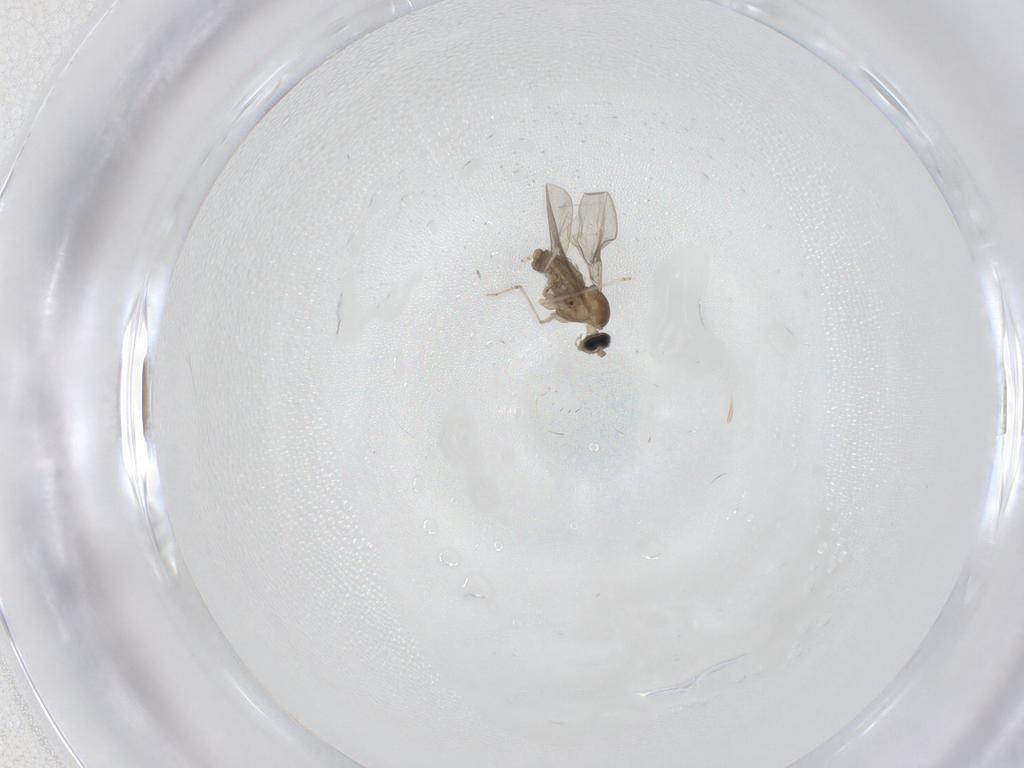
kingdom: Animalia
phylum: Arthropoda
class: Insecta
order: Diptera
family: Cecidomyiidae
